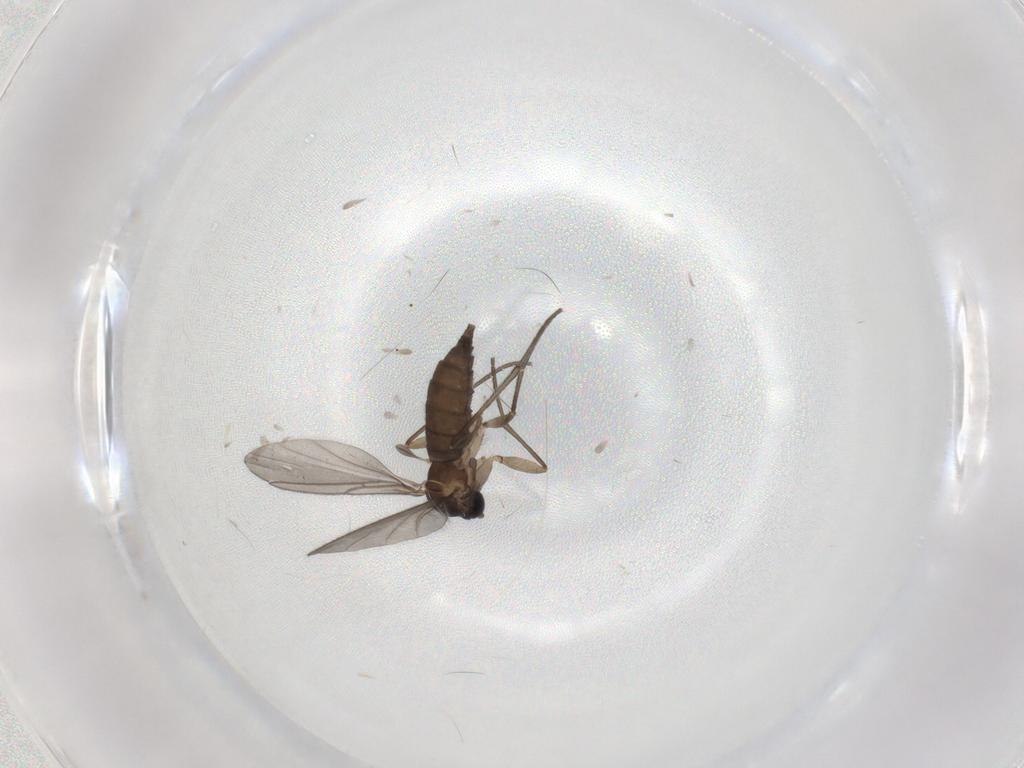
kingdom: Animalia
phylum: Arthropoda
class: Insecta
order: Diptera
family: Sciaridae
